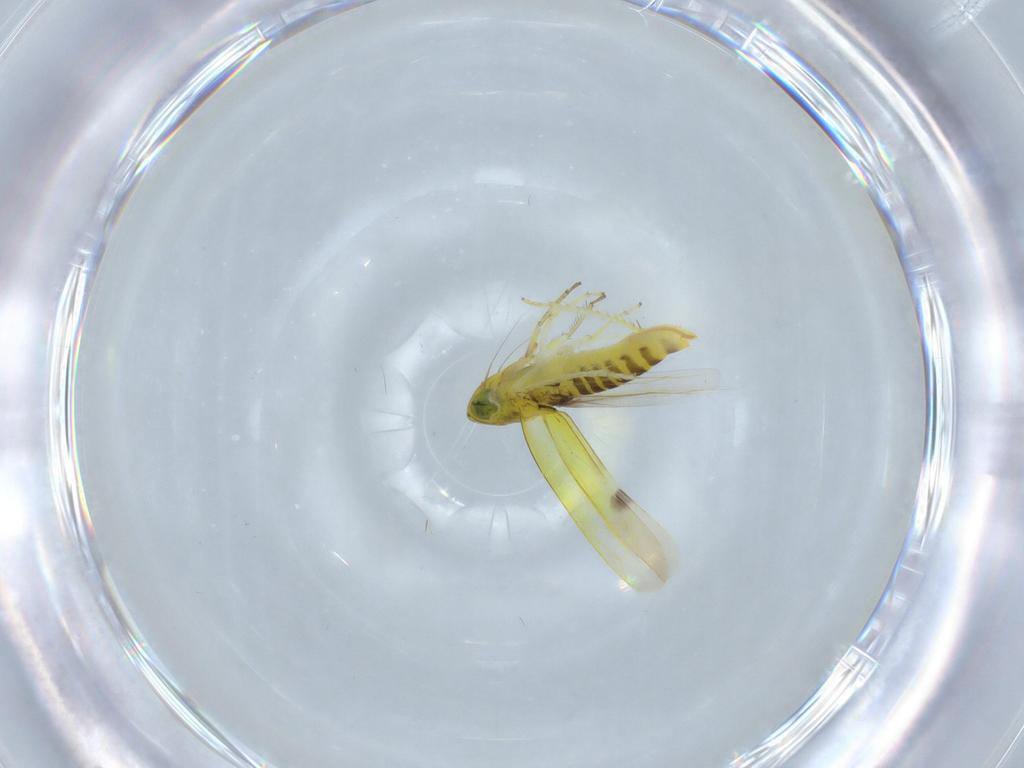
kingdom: Animalia
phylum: Arthropoda
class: Insecta
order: Hemiptera
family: Cicadellidae
